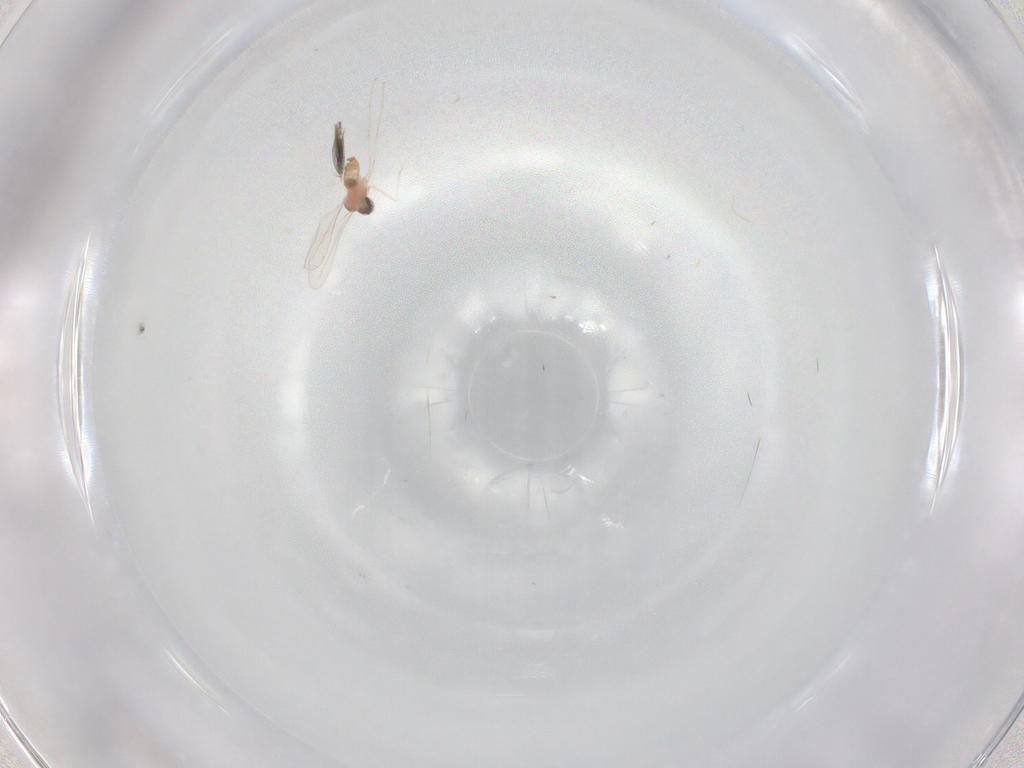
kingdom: Animalia
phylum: Arthropoda
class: Insecta
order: Diptera
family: Ceratopogonidae
